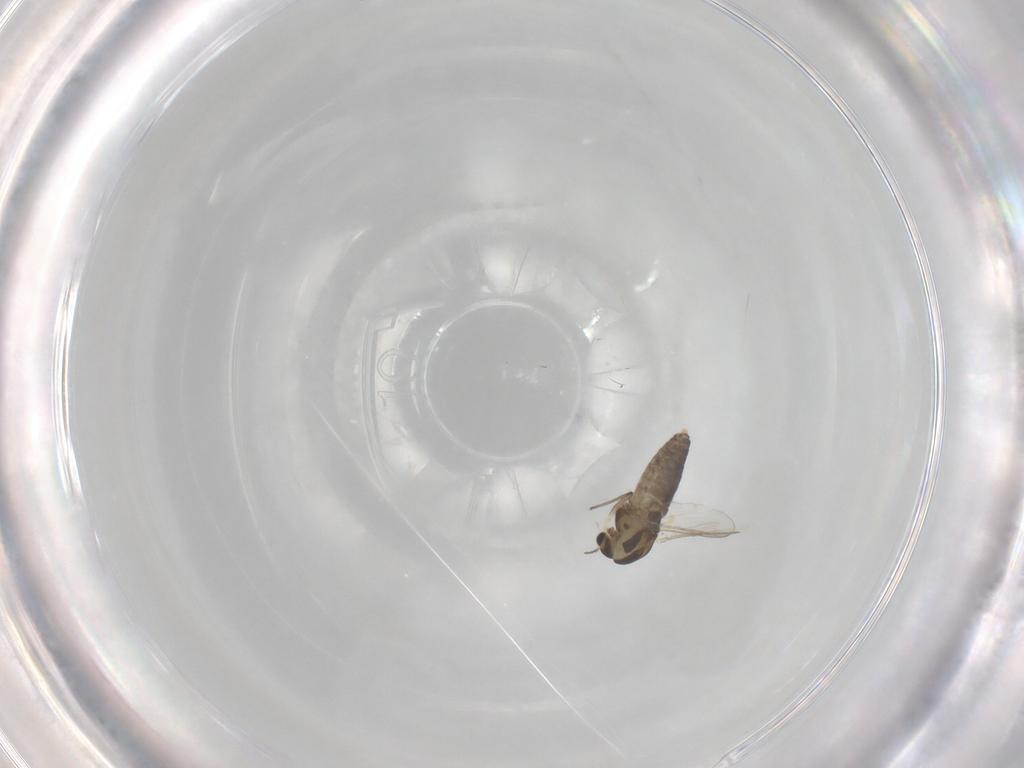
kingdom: Animalia
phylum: Arthropoda
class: Insecta
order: Diptera
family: Chironomidae
